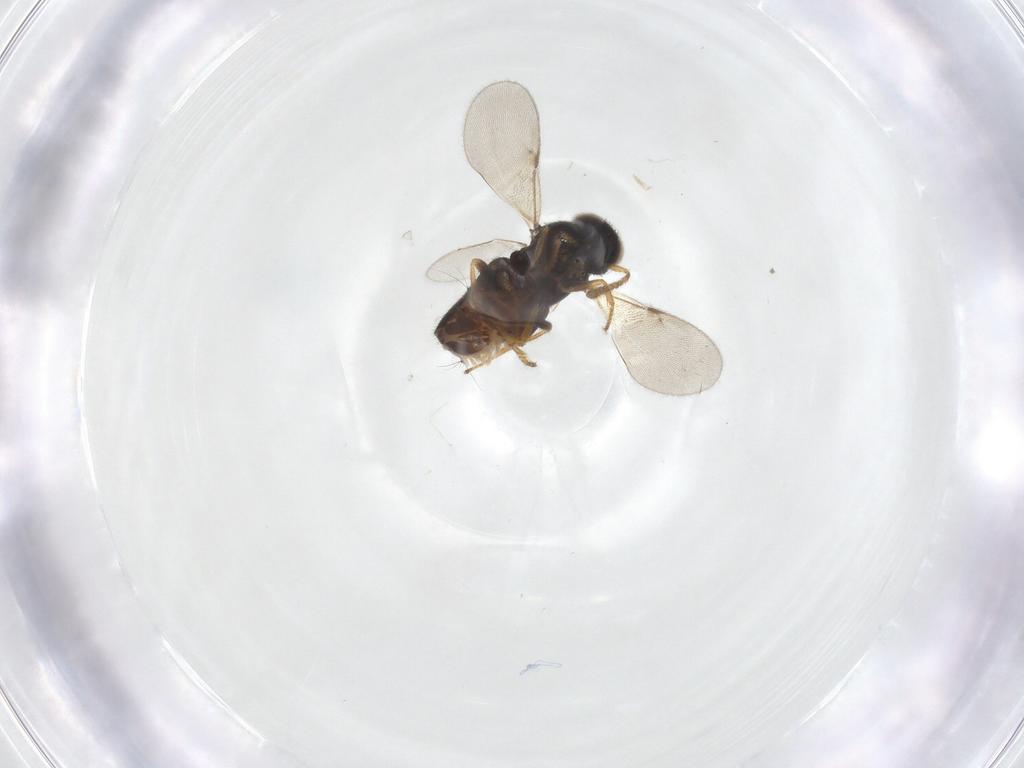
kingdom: Animalia
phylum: Arthropoda
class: Insecta
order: Hymenoptera
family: Encyrtidae
